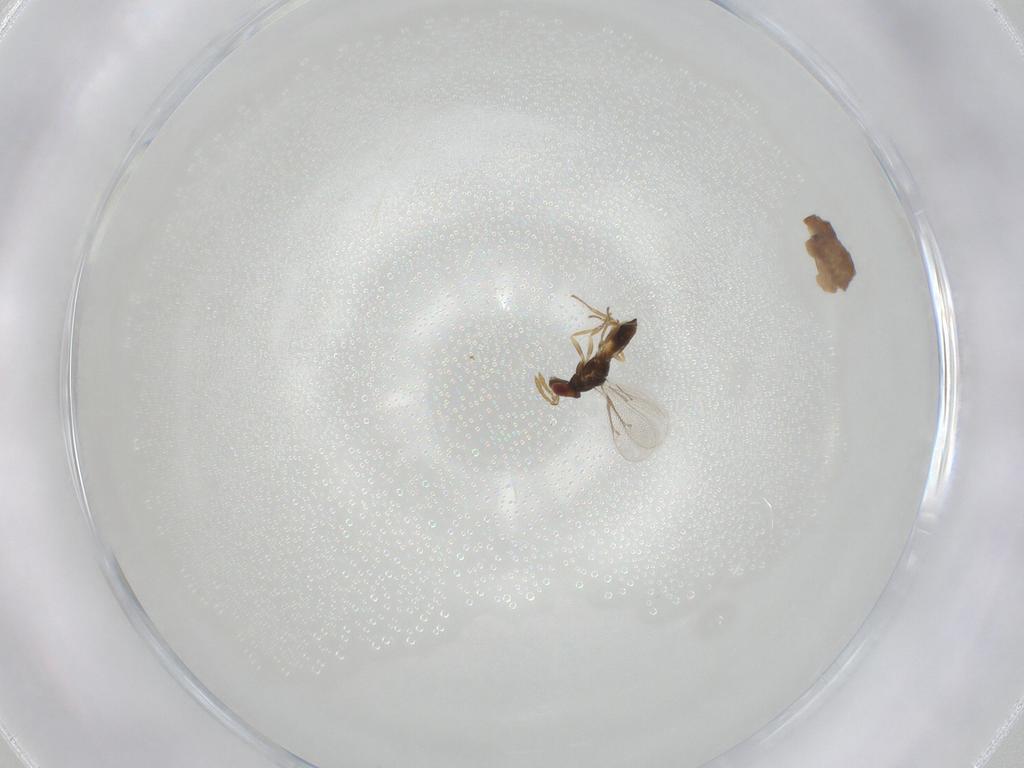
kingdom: Animalia
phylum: Arthropoda
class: Insecta
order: Hymenoptera
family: Eulophidae
